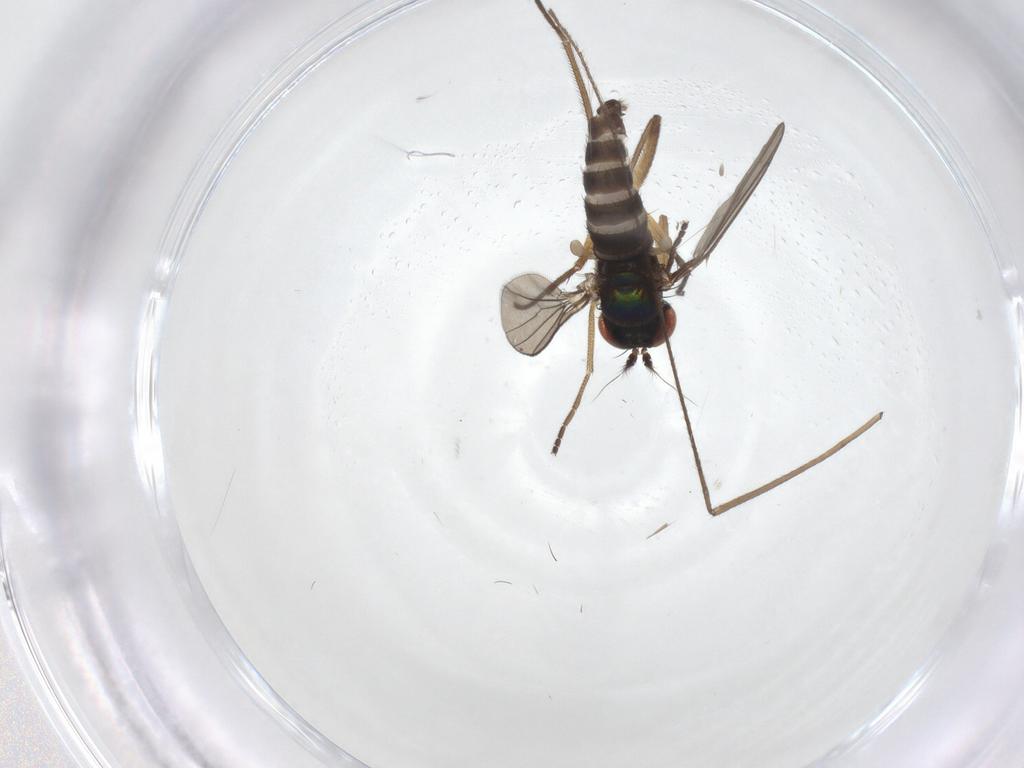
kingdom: Animalia
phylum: Arthropoda
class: Insecta
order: Diptera
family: Dolichopodidae
